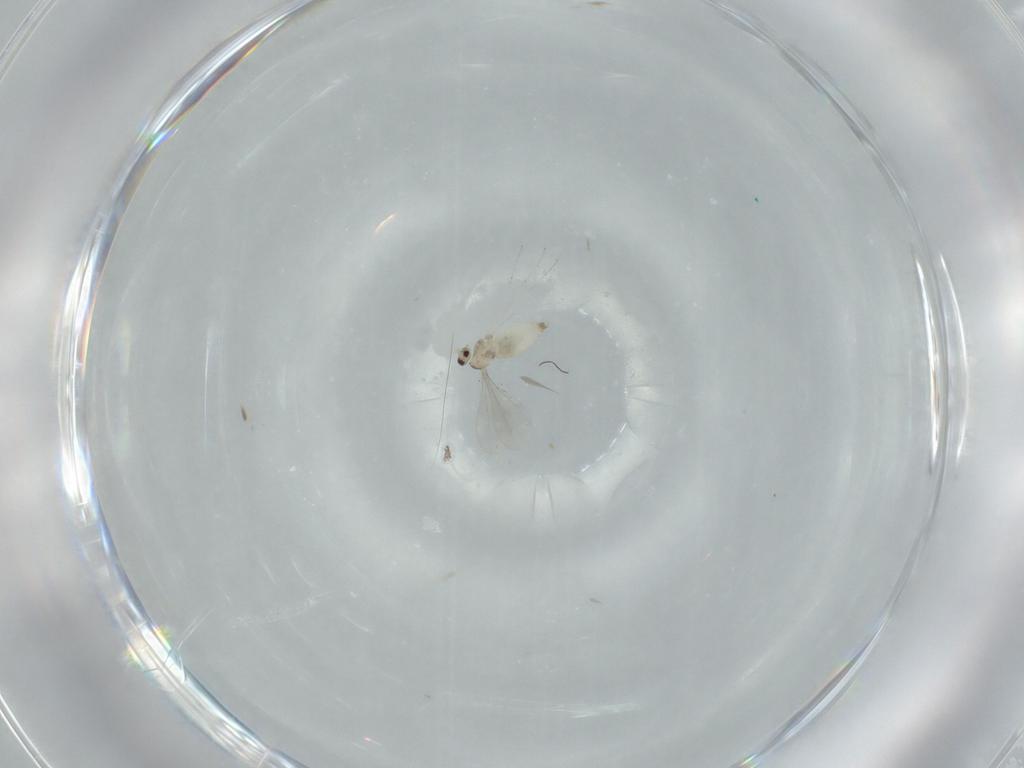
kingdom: Animalia
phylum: Arthropoda
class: Insecta
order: Diptera
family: Cecidomyiidae
